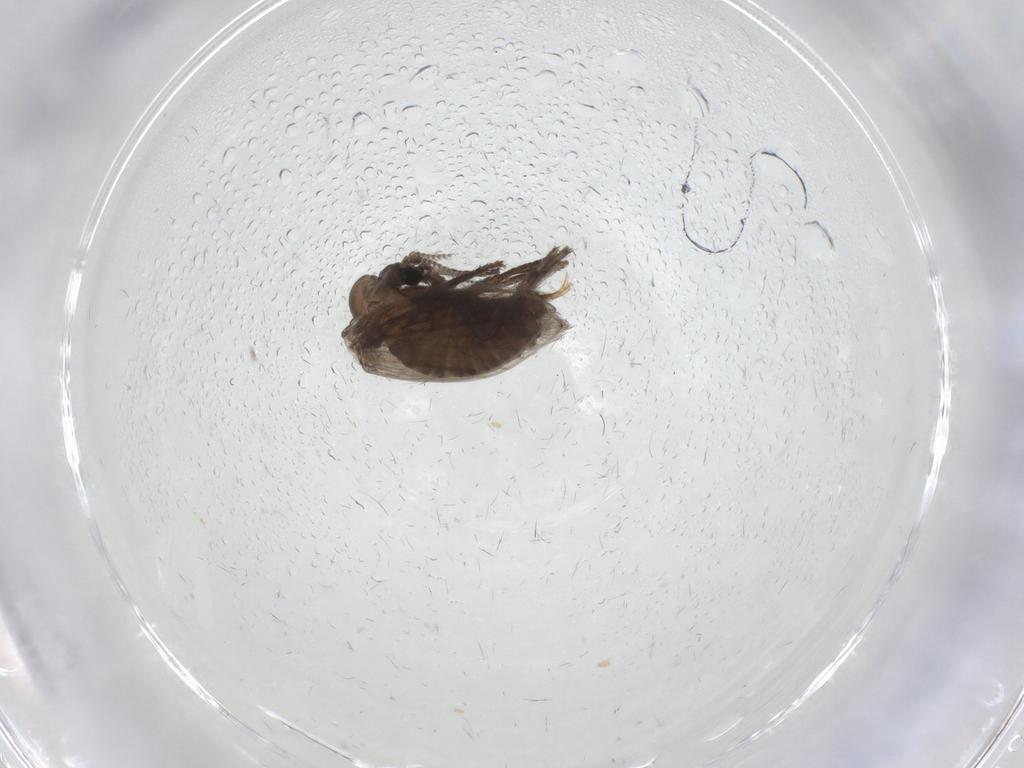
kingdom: Animalia
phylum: Arthropoda
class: Insecta
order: Diptera
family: Psychodidae
